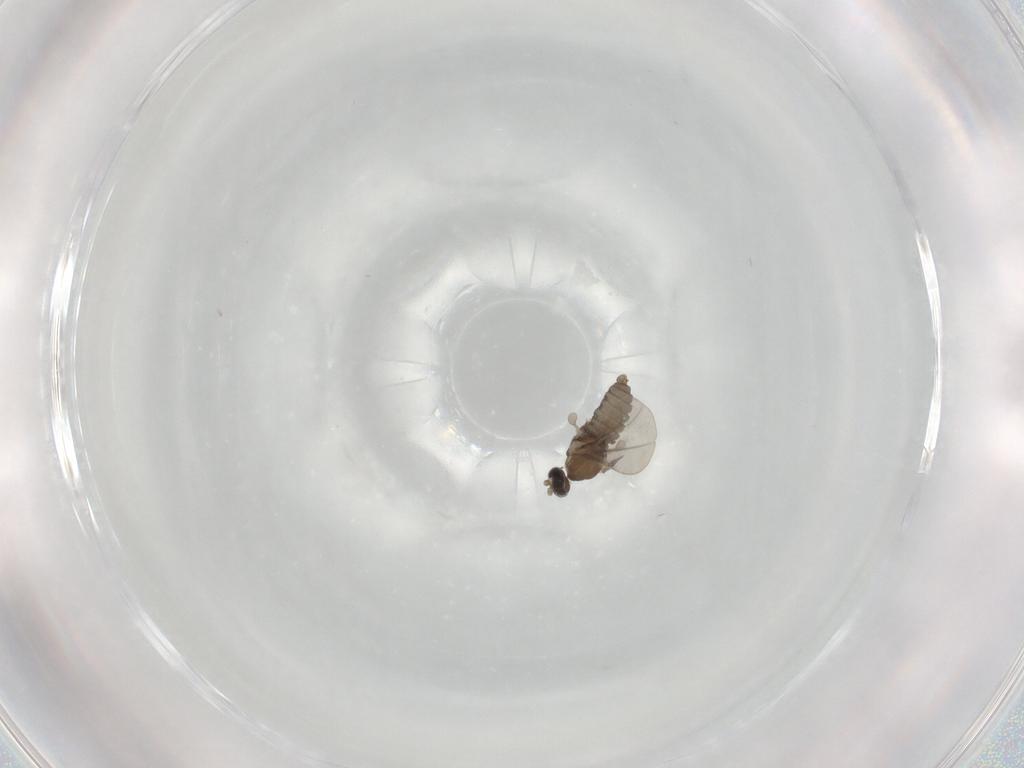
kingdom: Animalia
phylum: Arthropoda
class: Insecta
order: Diptera
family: Cecidomyiidae
